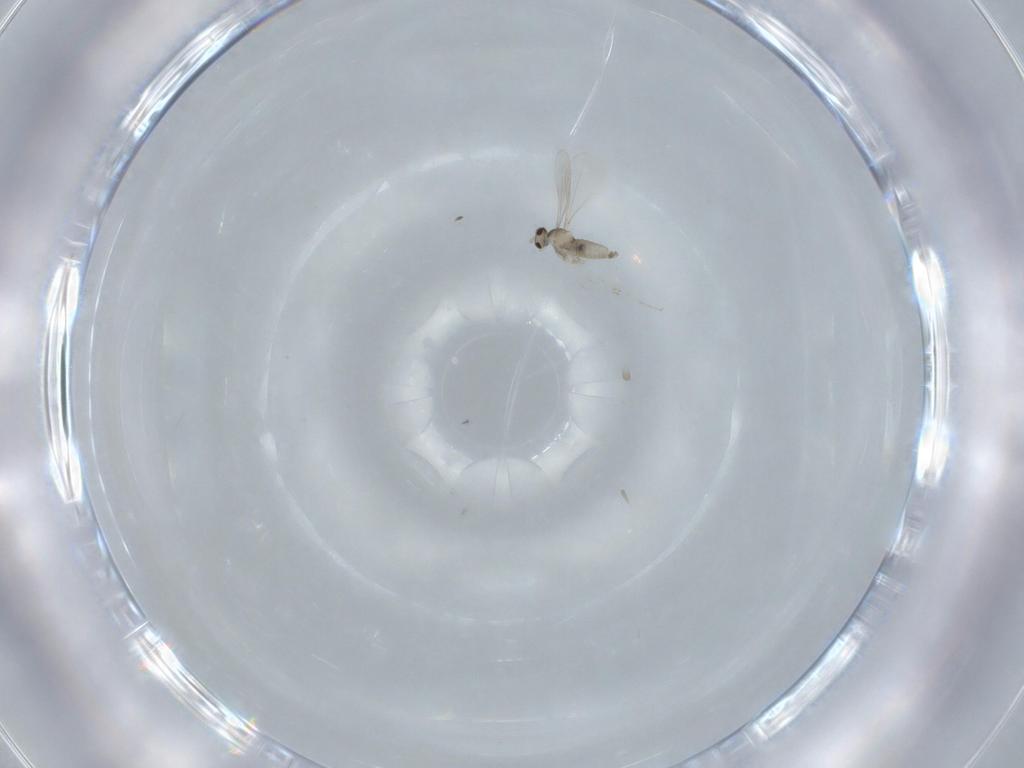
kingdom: Animalia
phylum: Arthropoda
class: Insecta
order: Diptera
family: Cecidomyiidae
